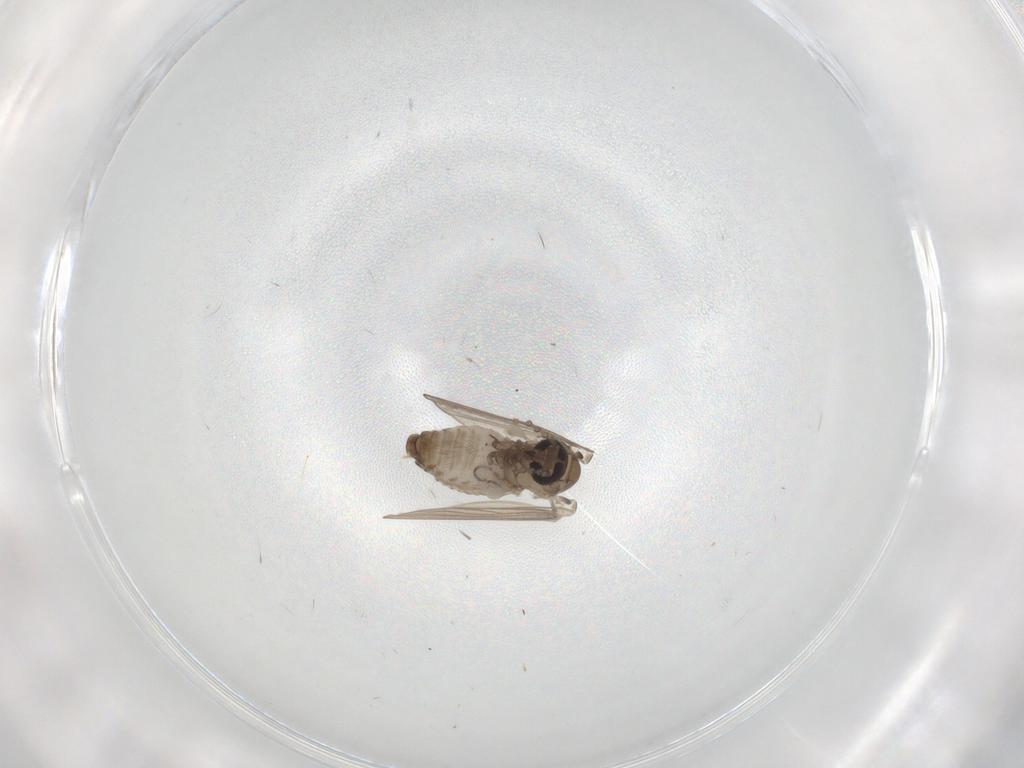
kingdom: Animalia
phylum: Arthropoda
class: Insecta
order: Diptera
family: Psychodidae
